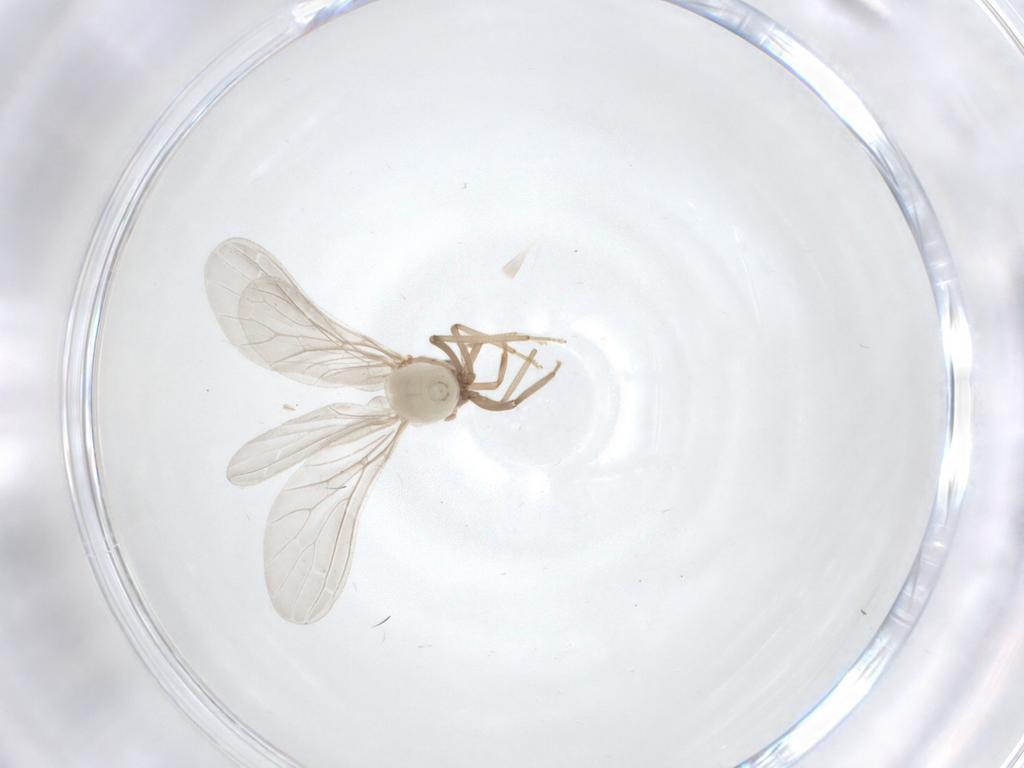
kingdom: Animalia
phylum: Arthropoda
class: Insecta
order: Neuroptera
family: Coniopterygidae
